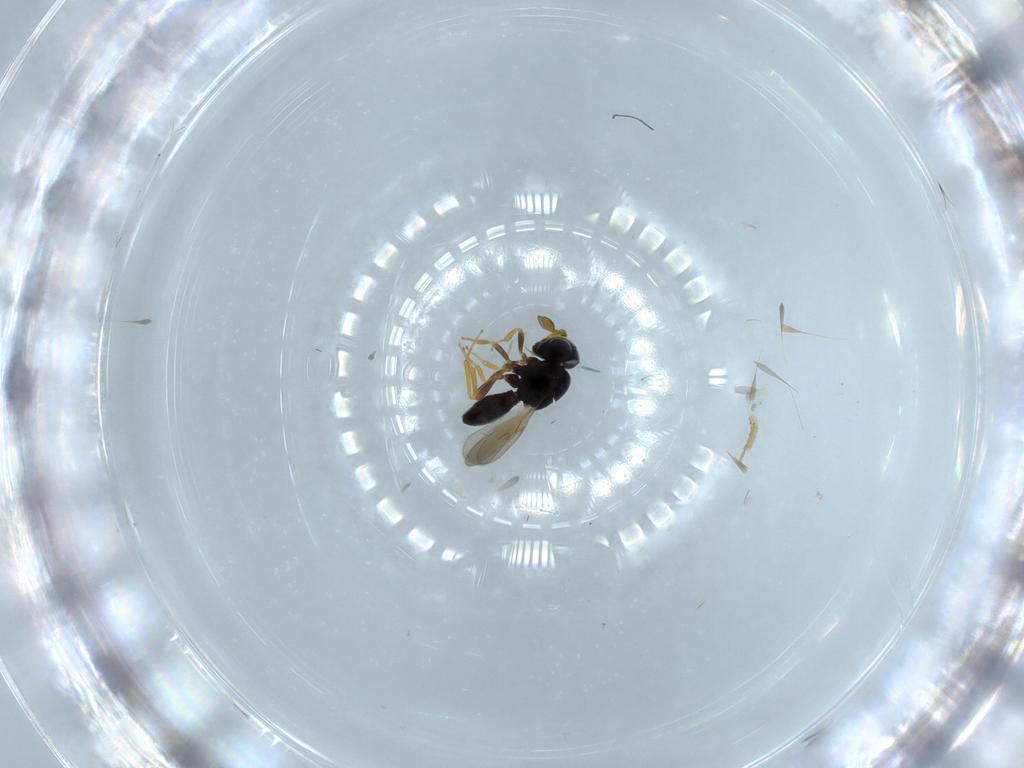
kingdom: Animalia
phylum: Arthropoda
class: Insecta
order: Hymenoptera
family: Scelionidae
